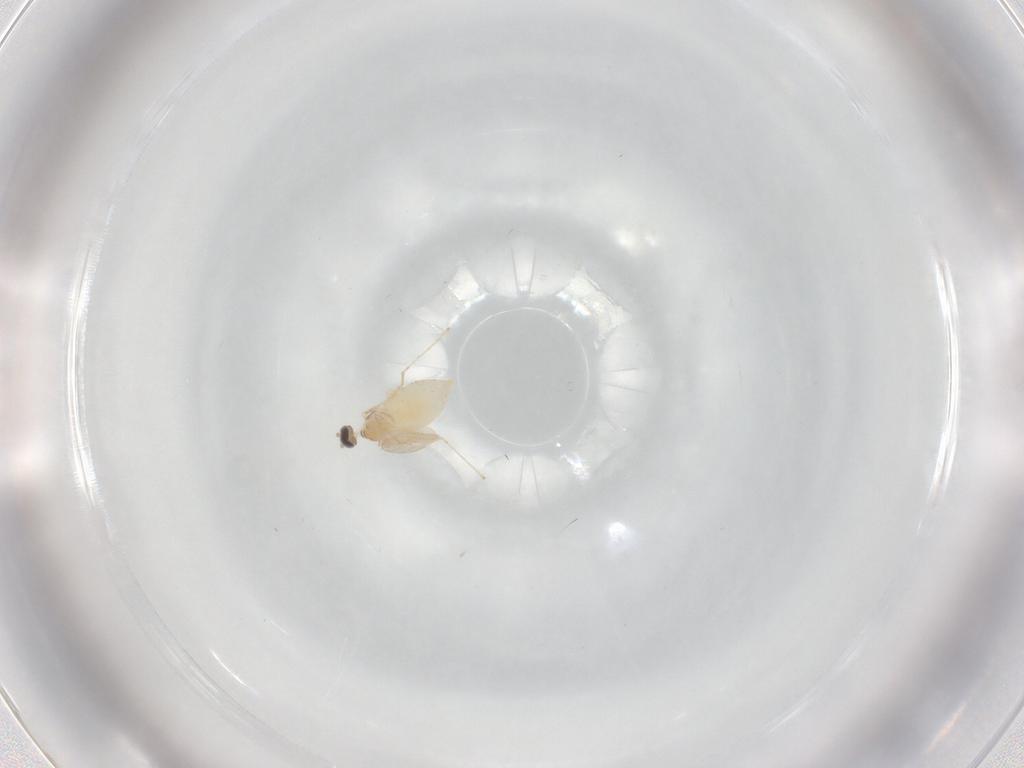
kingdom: Animalia
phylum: Arthropoda
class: Insecta
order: Diptera
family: Cecidomyiidae
